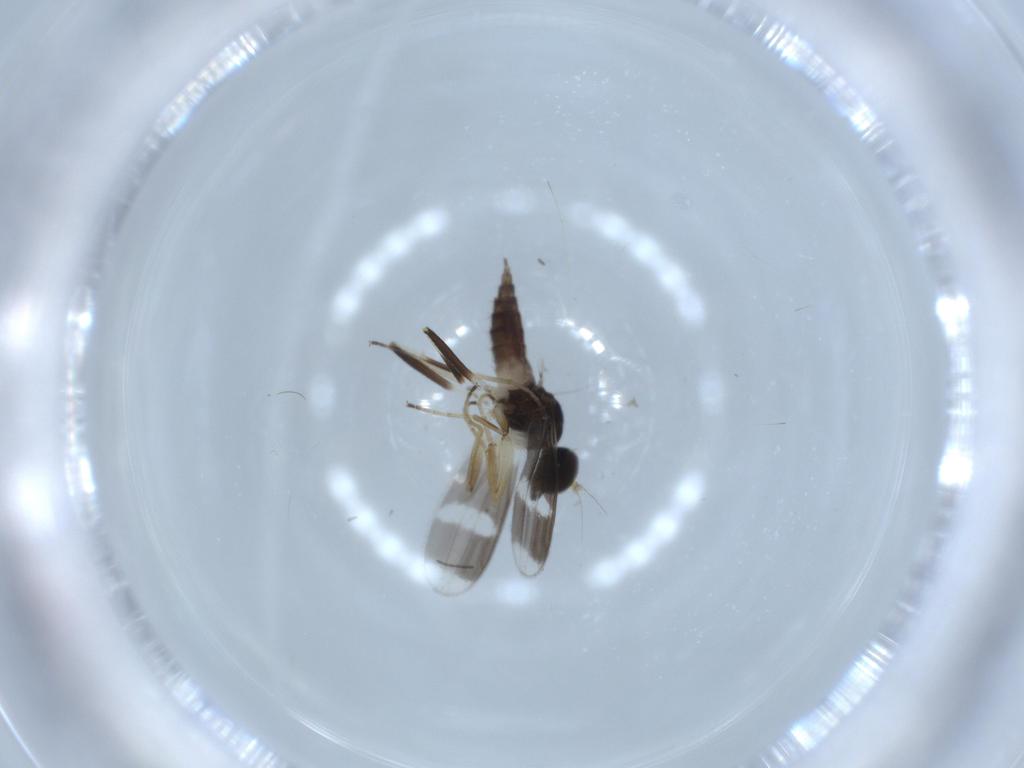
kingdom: Animalia
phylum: Arthropoda
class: Insecta
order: Diptera
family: Hybotidae
